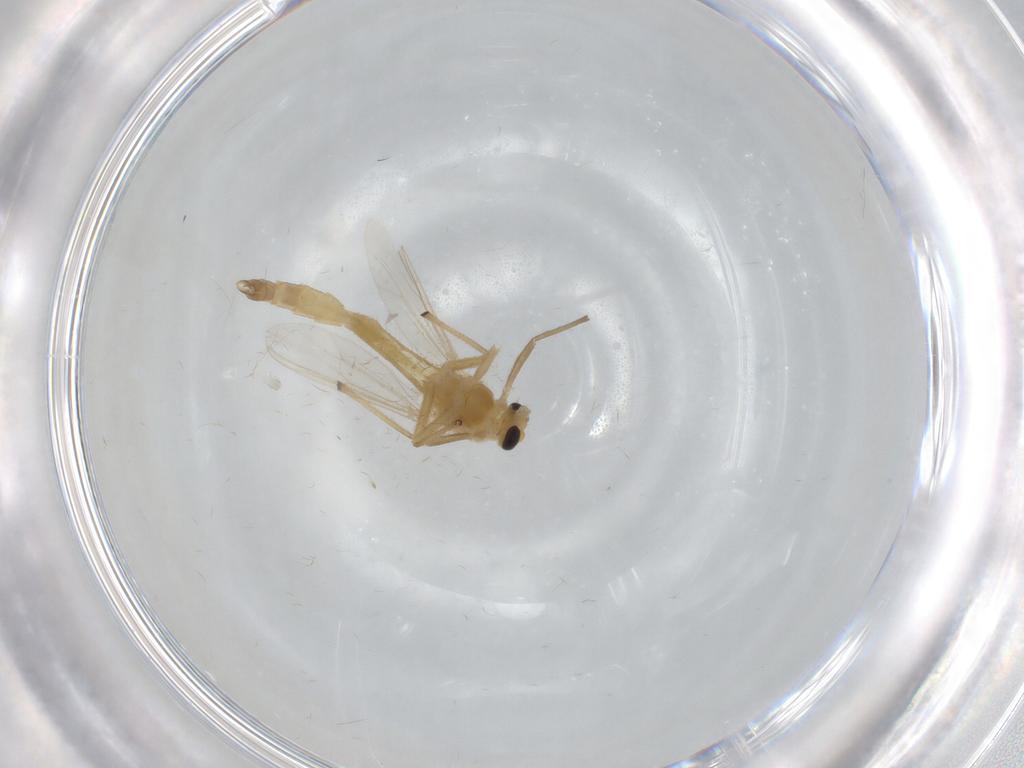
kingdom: Animalia
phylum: Arthropoda
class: Insecta
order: Diptera
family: Chironomidae
